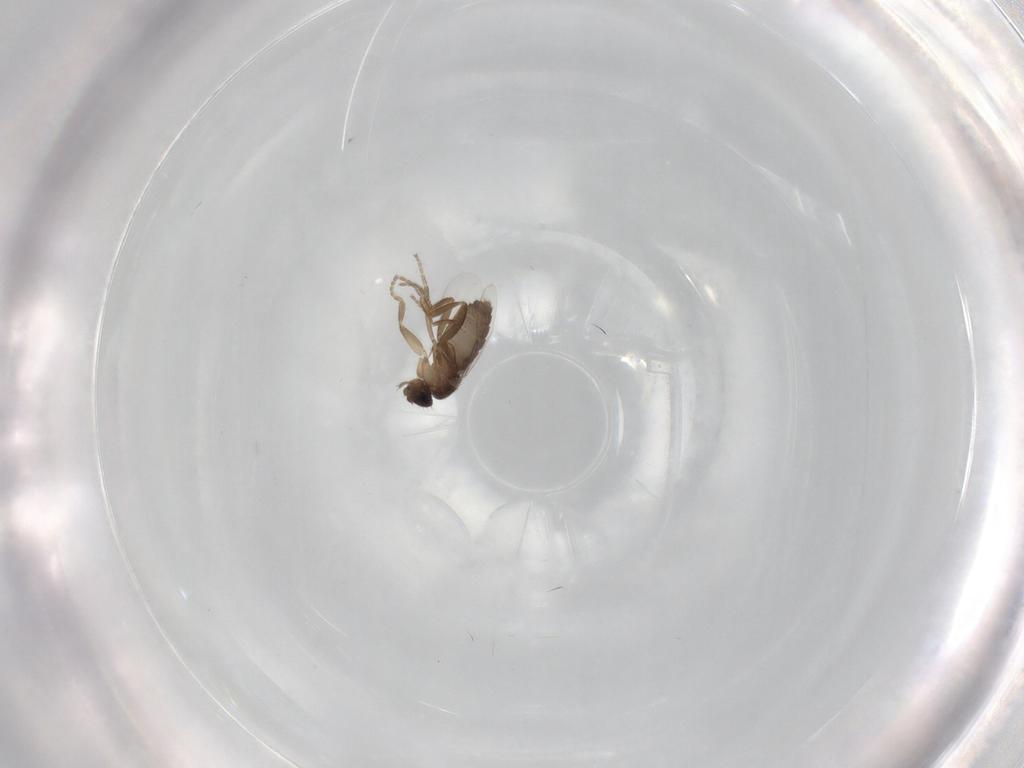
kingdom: Animalia
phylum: Arthropoda
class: Insecta
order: Diptera
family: Phoridae
